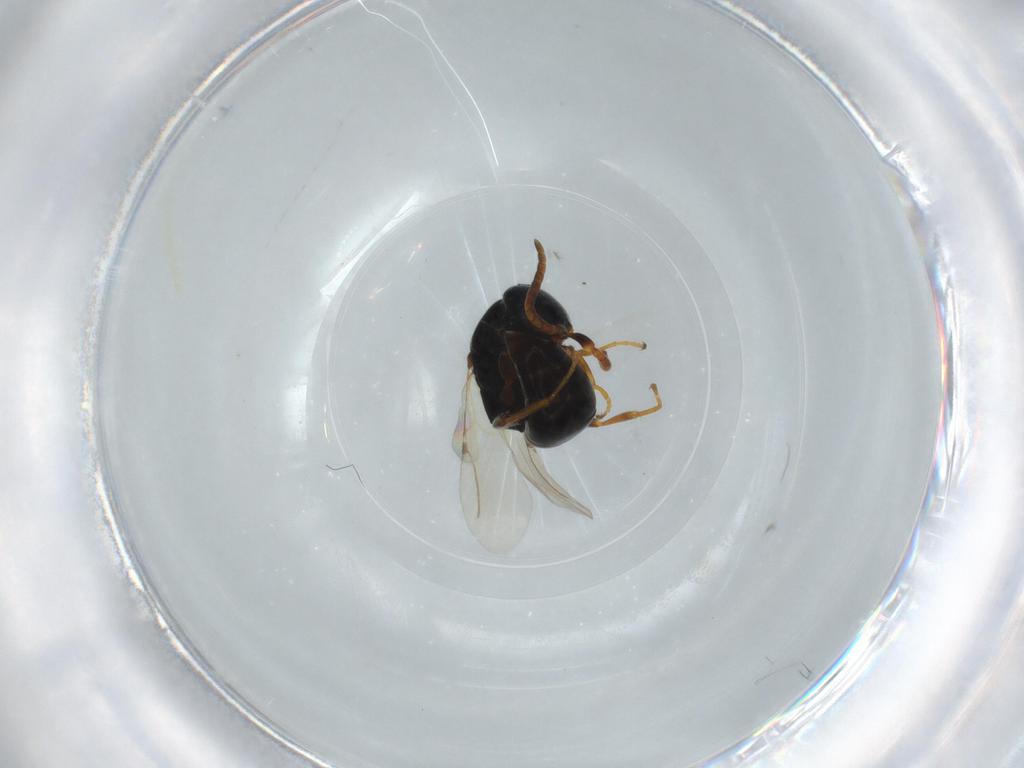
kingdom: Animalia
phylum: Arthropoda
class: Insecta
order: Hymenoptera
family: Bethylidae
